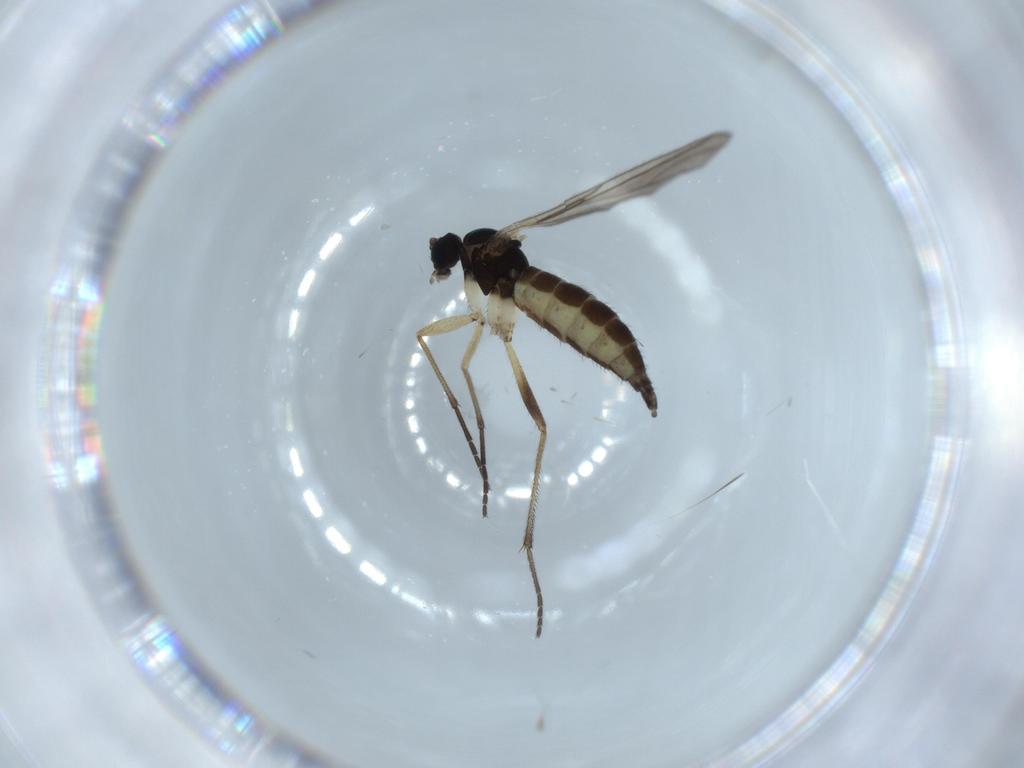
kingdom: Animalia
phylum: Arthropoda
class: Insecta
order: Diptera
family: Sciaridae
